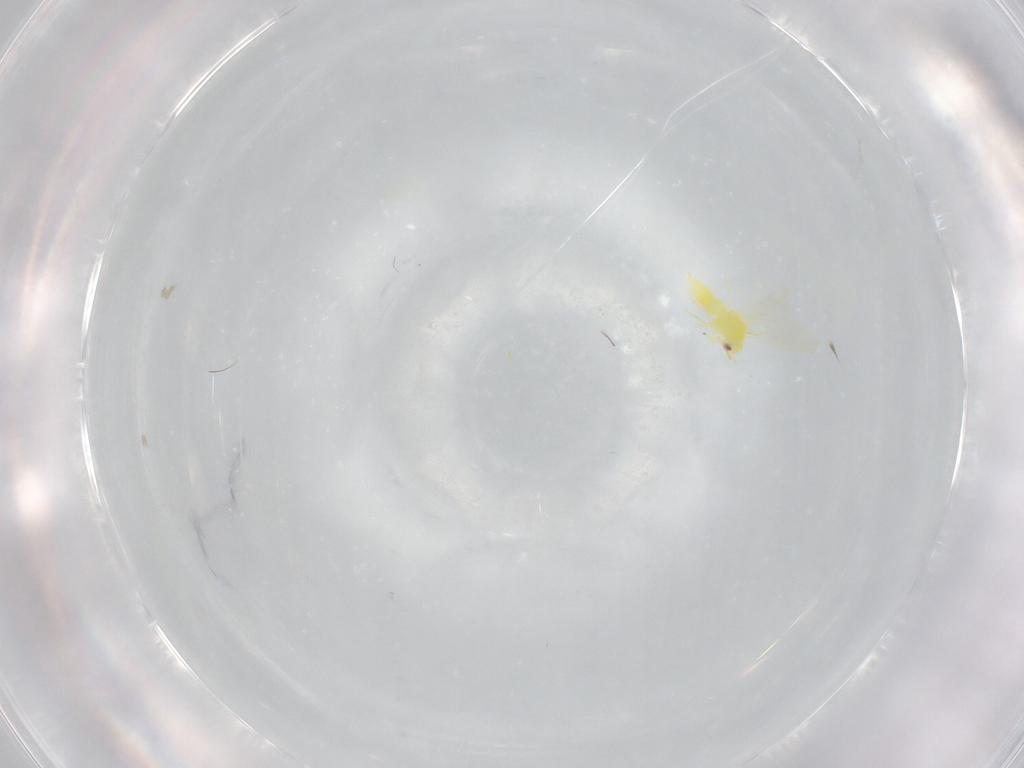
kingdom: Animalia
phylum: Arthropoda
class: Insecta
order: Hemiptera
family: Aleyrodidae
